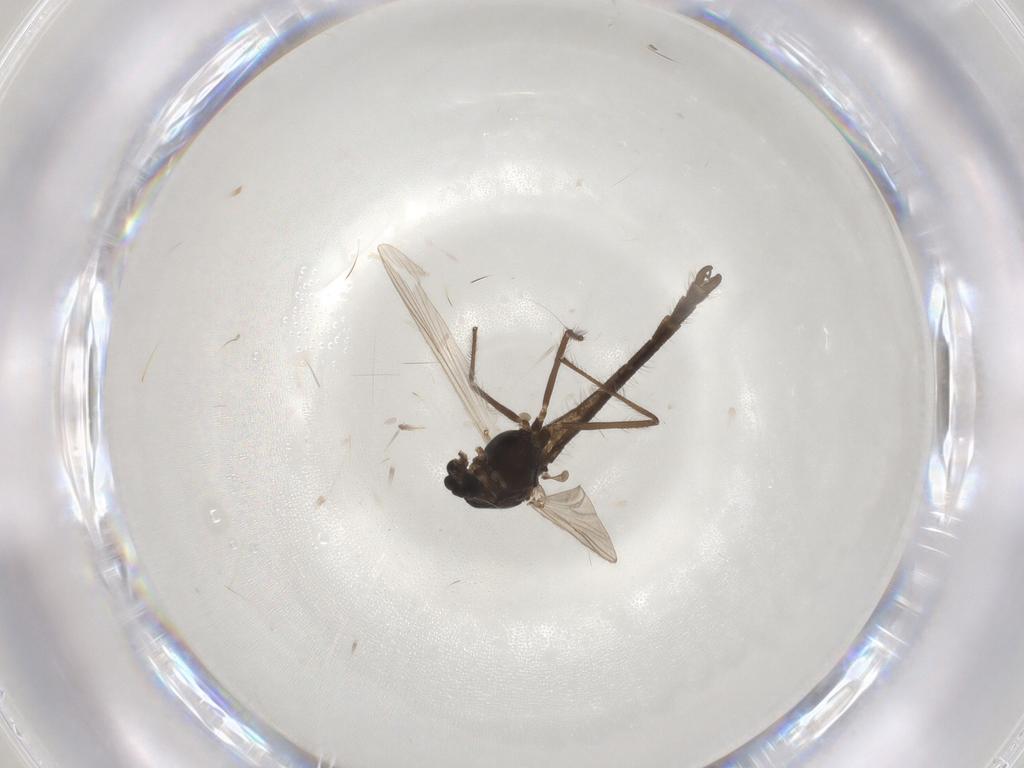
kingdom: Animalia
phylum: Arthropoda
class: Insecta
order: Diptera
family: Chironomidae
